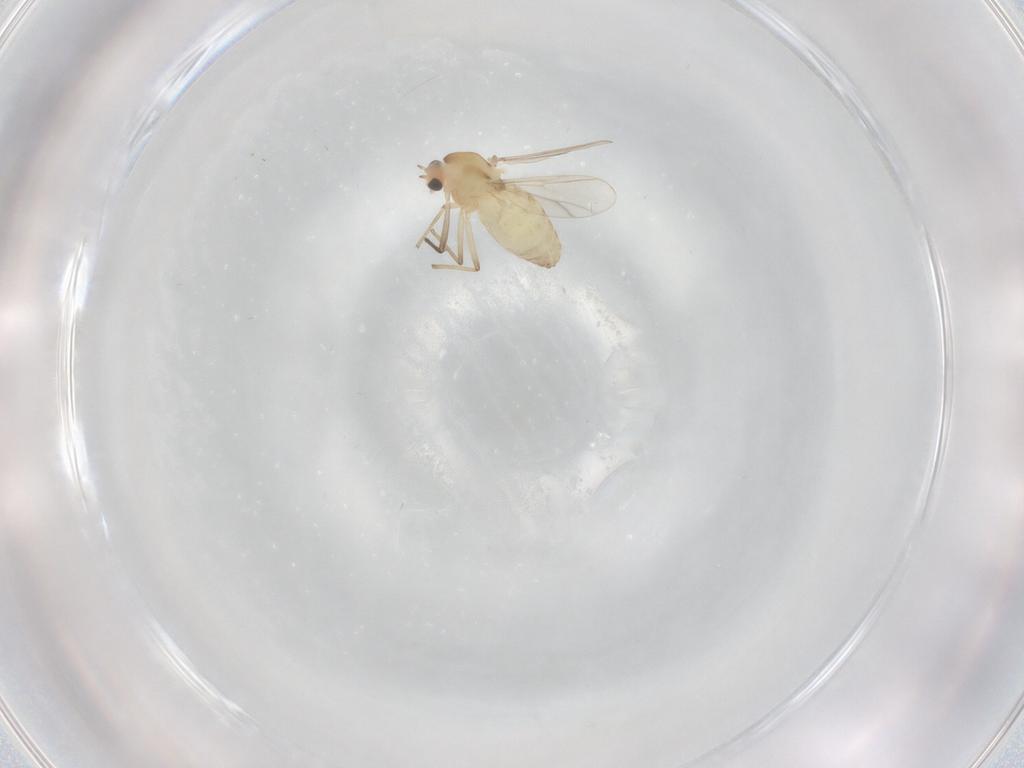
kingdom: Animalia
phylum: Arthropoda
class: Insecta
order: Diptera
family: Chironomidae
